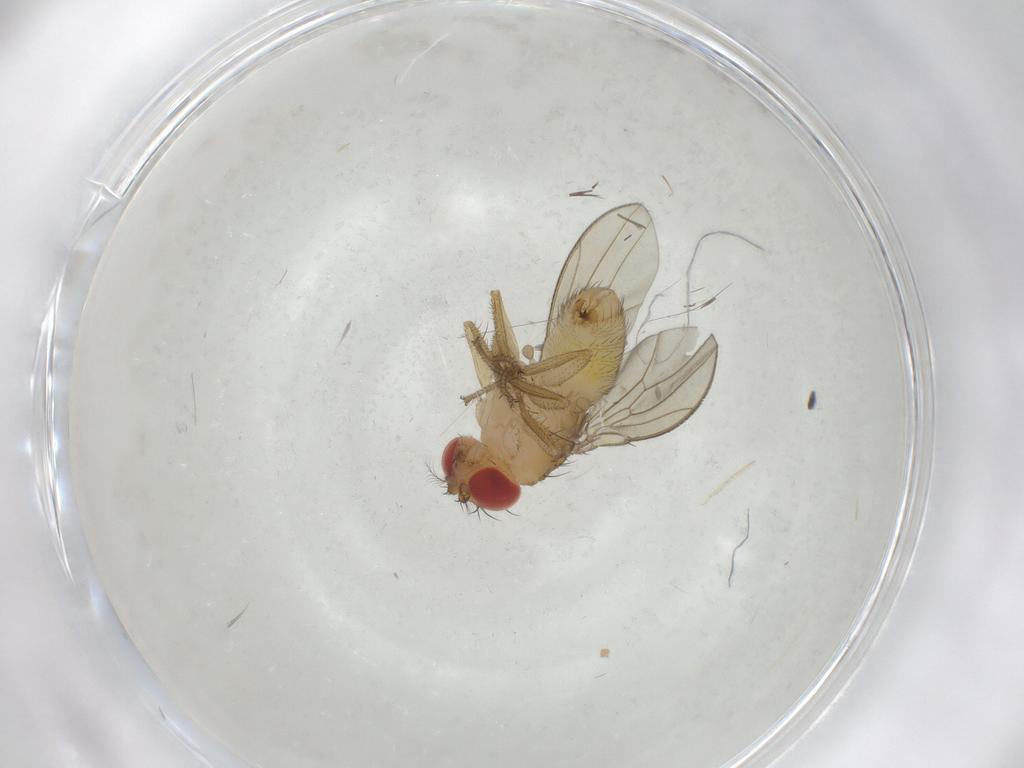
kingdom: Animalia
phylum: Arthropoda
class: Insecta
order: Diptera
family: Drosophilidae
